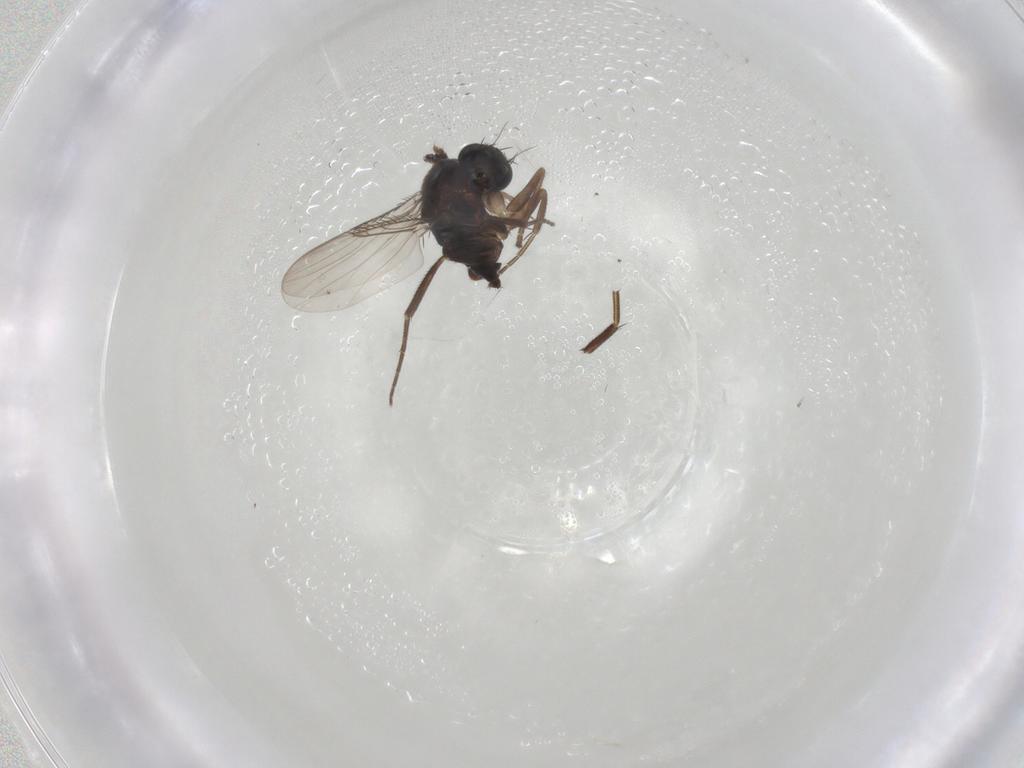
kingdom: Animalia
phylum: Arthropoda
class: Insecta
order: Diptera
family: Phoridae
